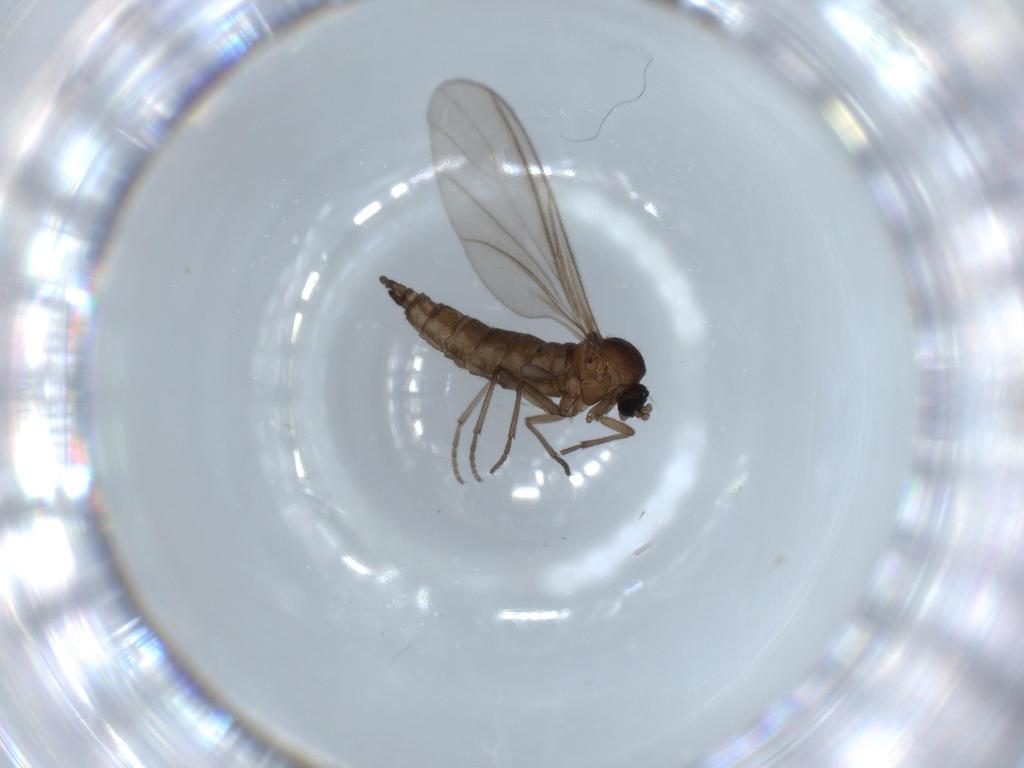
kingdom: Animalia
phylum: Arthropoda
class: Insecta
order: Diptera
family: Sciaridae
